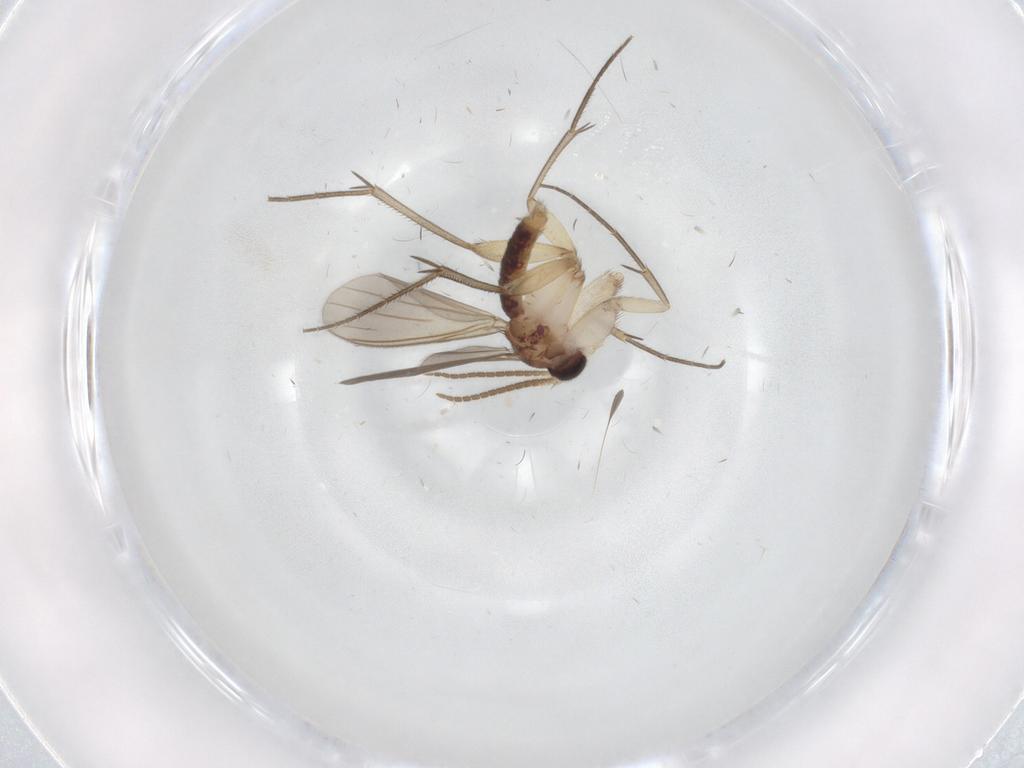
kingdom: Animalia
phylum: Arthropoda
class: Insecta
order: Diptera
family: Mycetophilidae
